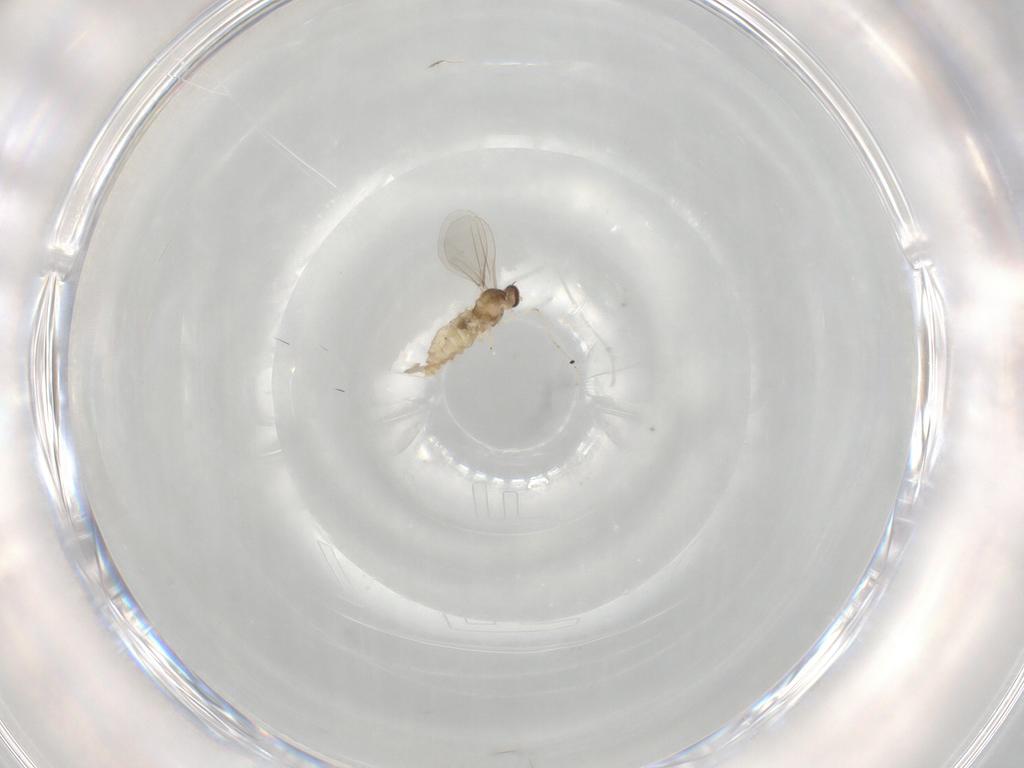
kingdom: Animalia
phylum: Arthropoda
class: Insecta
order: Diptera
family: Cecidomyiidae
